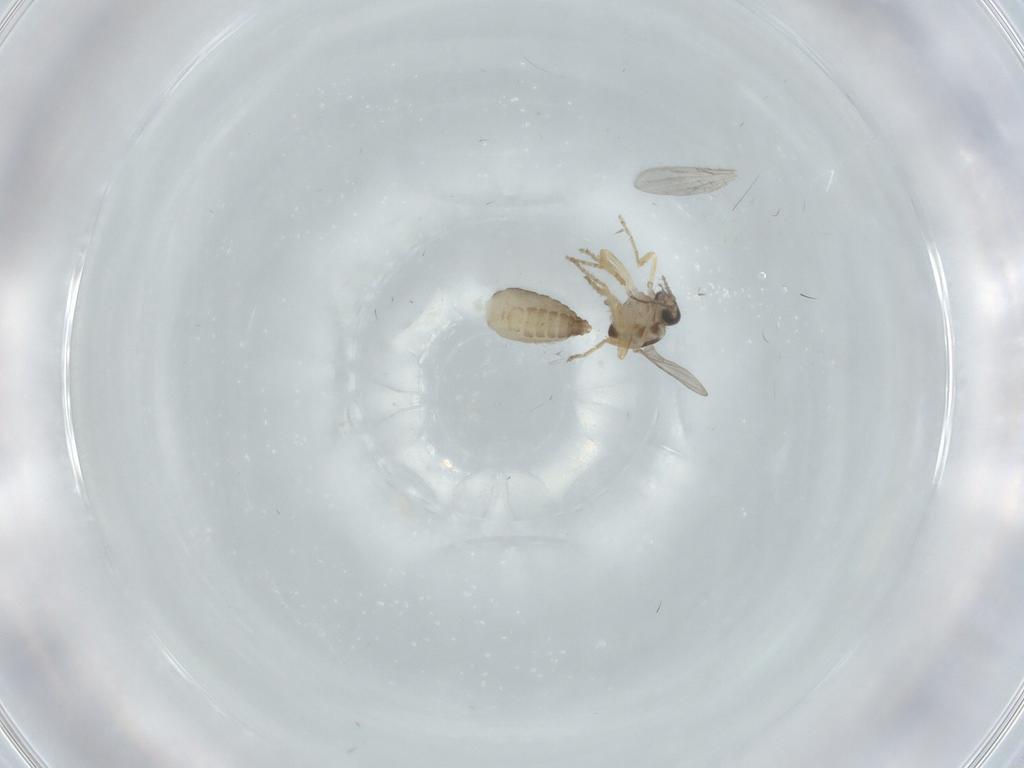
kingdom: Animalia
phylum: Arthropoda
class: Insecta
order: Diptera
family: Ceratopogonidae
